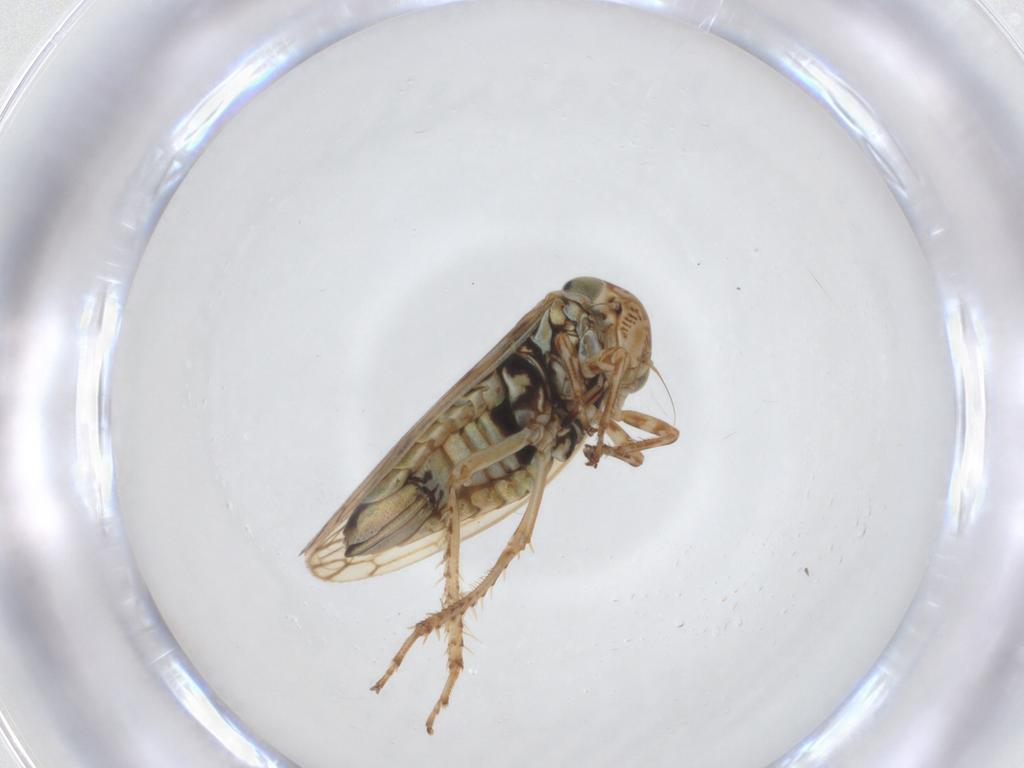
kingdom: Animalia
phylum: Arthropoda
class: Insecta
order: Hemiptera
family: Cicadellidae
